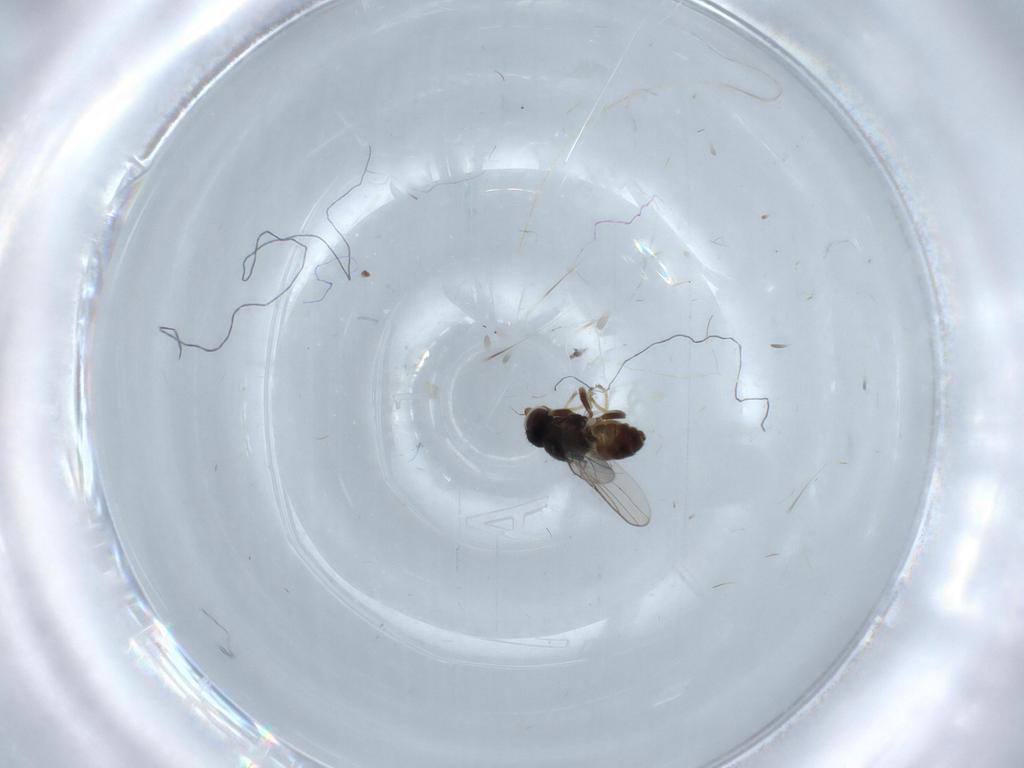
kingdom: Animalia
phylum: Arthropoda
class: Insecta
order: Diptera
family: Chloropidae
